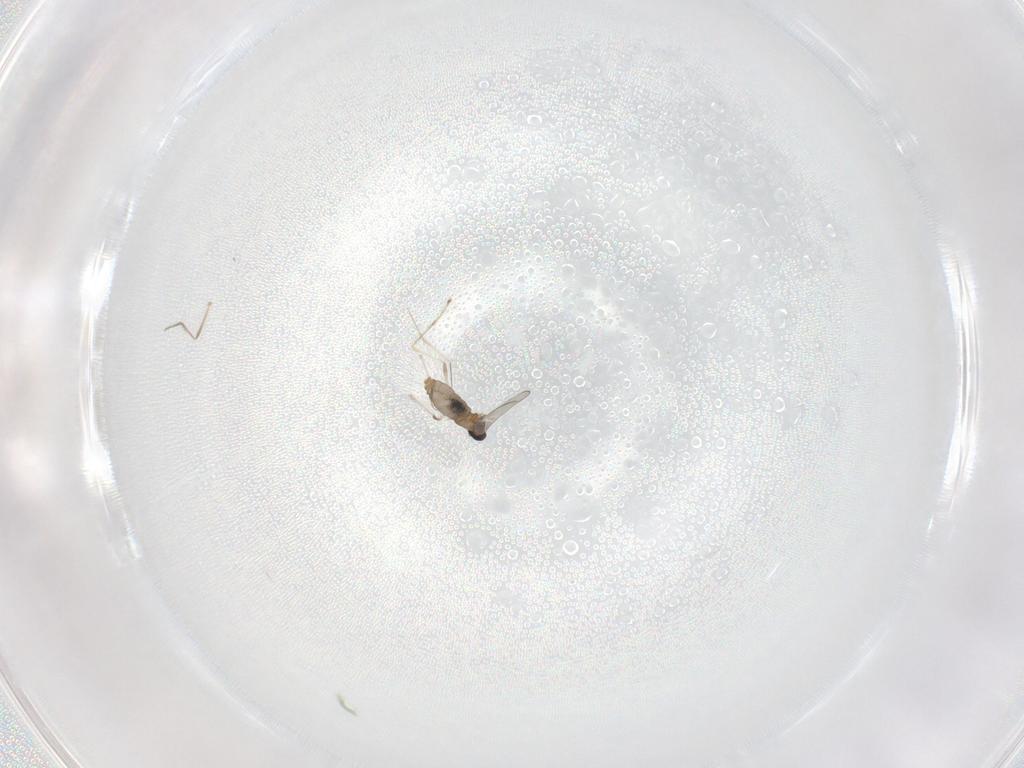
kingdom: Animalia
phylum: Arthropoda
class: Insecta
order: Diptera
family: Cecidomyiidae
